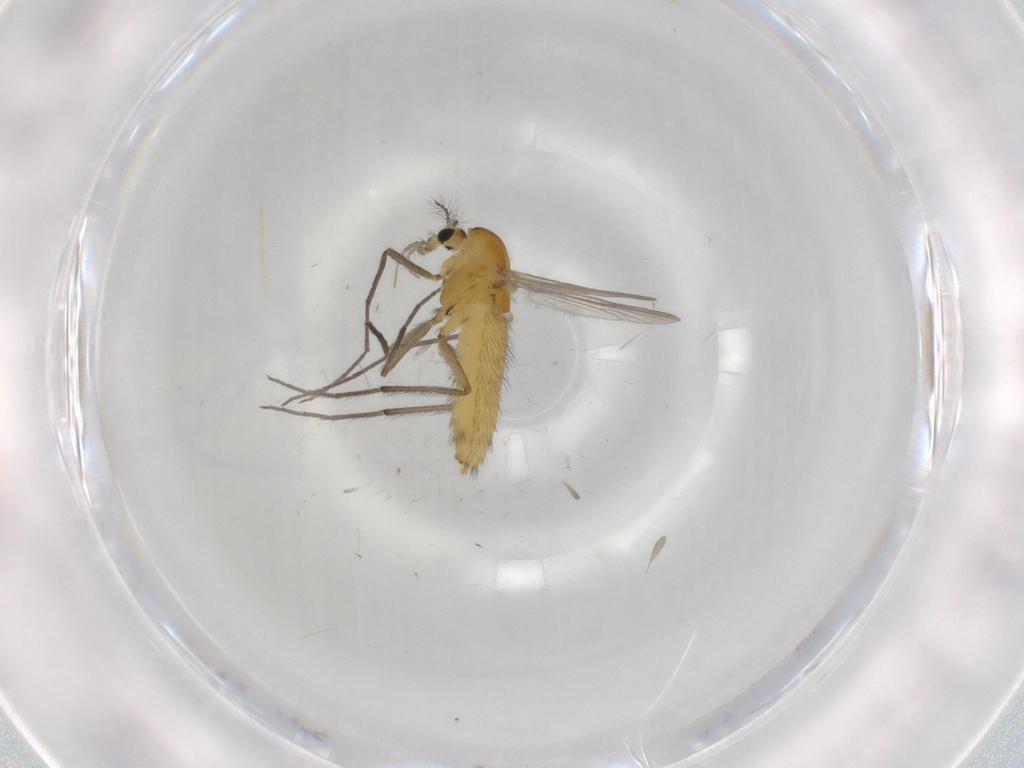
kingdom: Animalia
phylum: Arthropoda
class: Insecta
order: Diptera
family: Chironomidae
